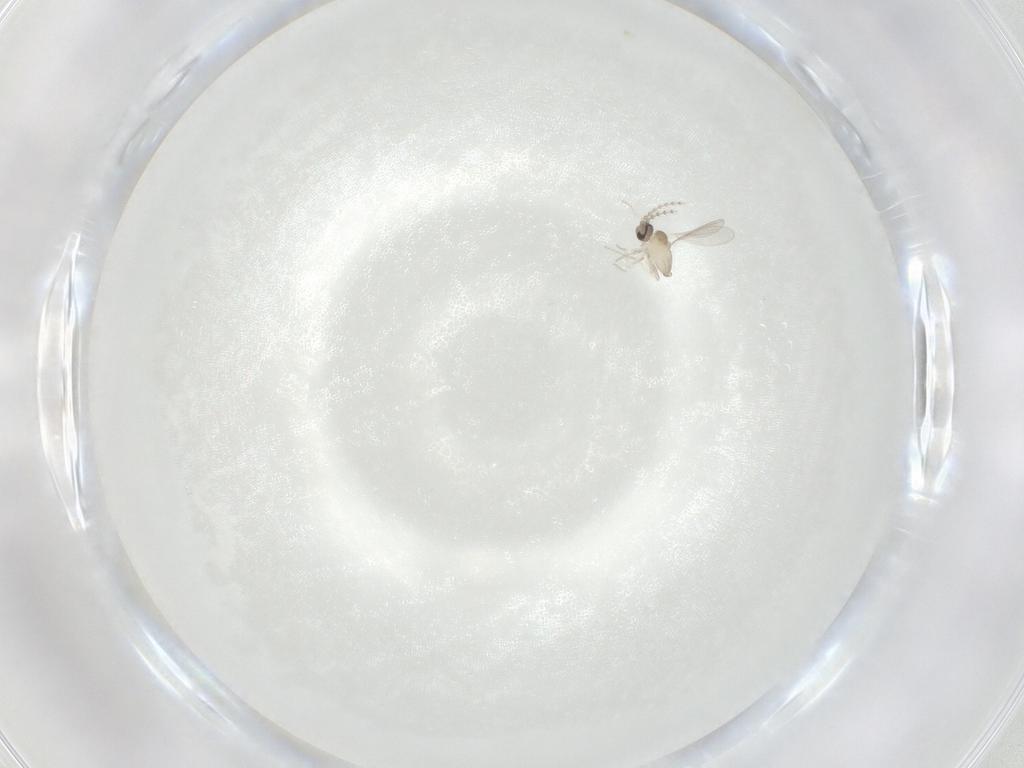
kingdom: Animalia
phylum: Arthropoda
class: Insecta
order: Diptera
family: Cecidomyiidae
